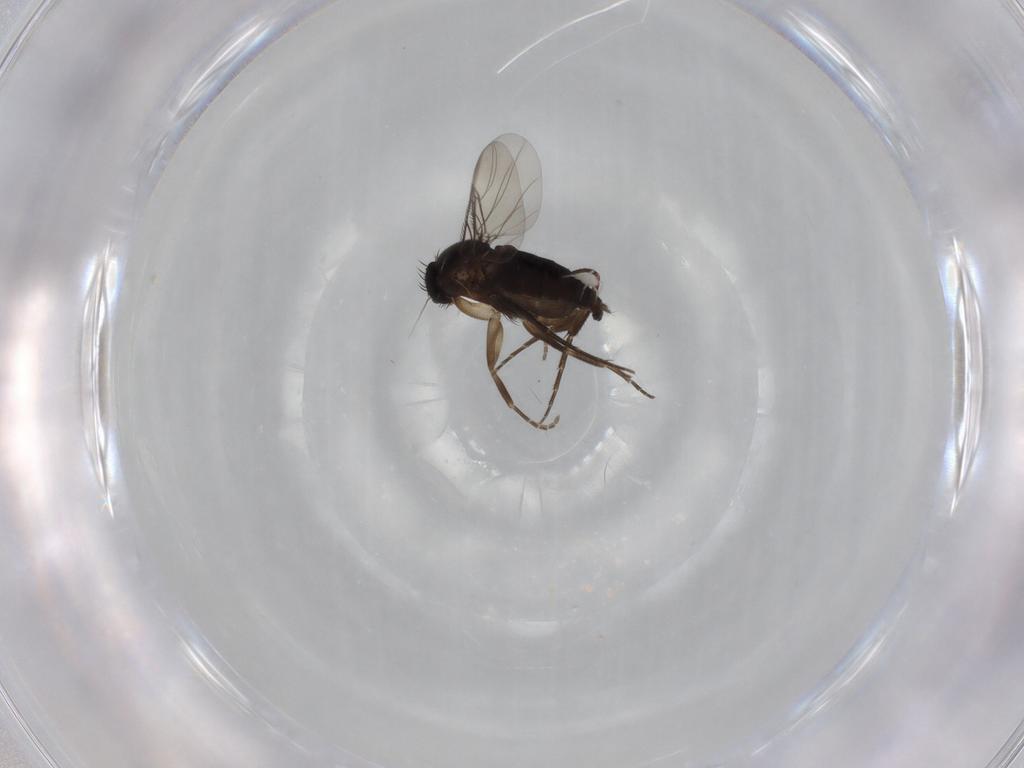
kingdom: Animalia
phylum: Arthropoda
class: Insecta
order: Diptera
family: Phoridae
